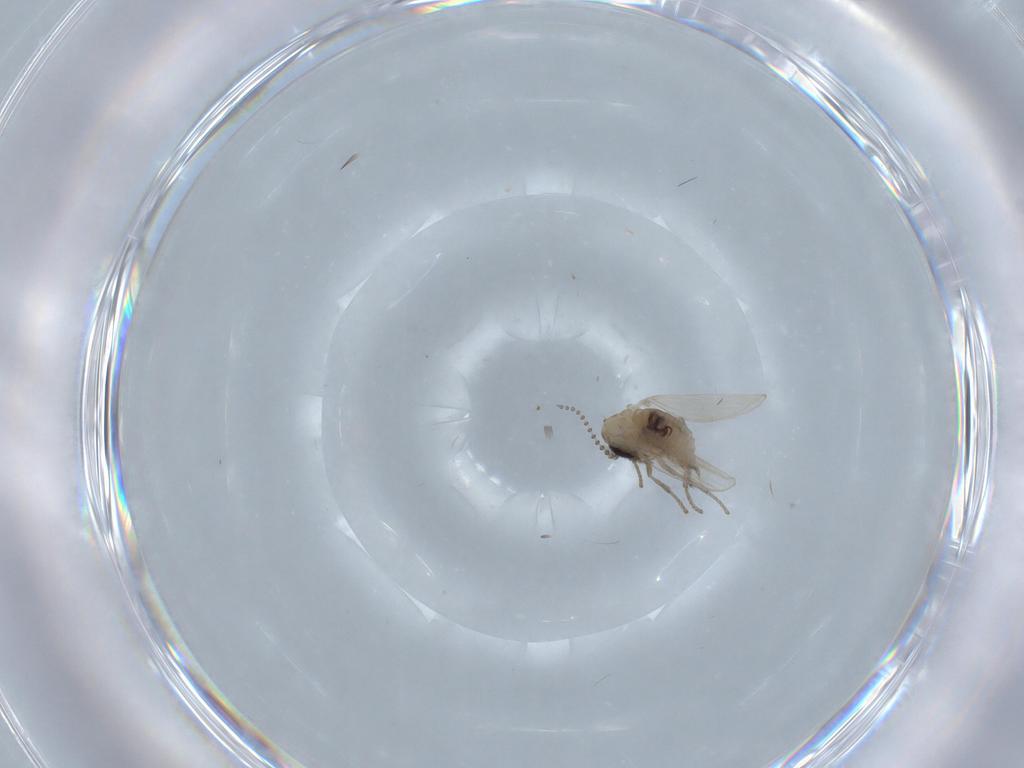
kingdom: Animalia
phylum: Arthropoda
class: Insecta
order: Diptera
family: Psychodidae
